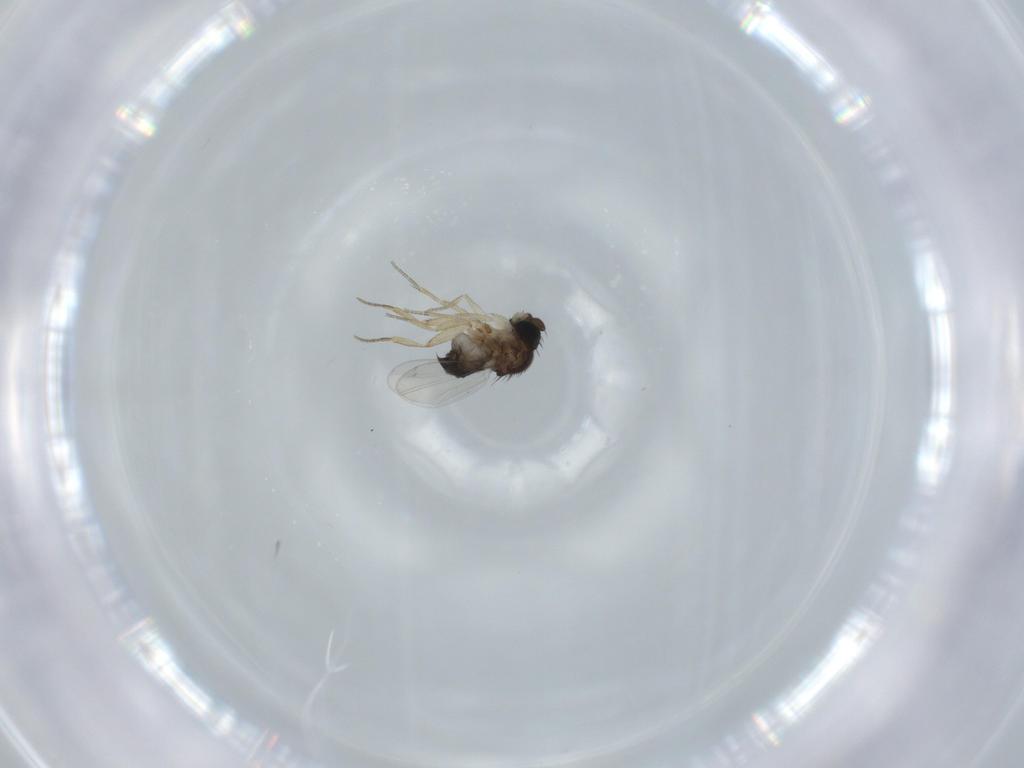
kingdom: Animalia
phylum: Arthropoda
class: Insecta
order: Diptera
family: Phoridae
